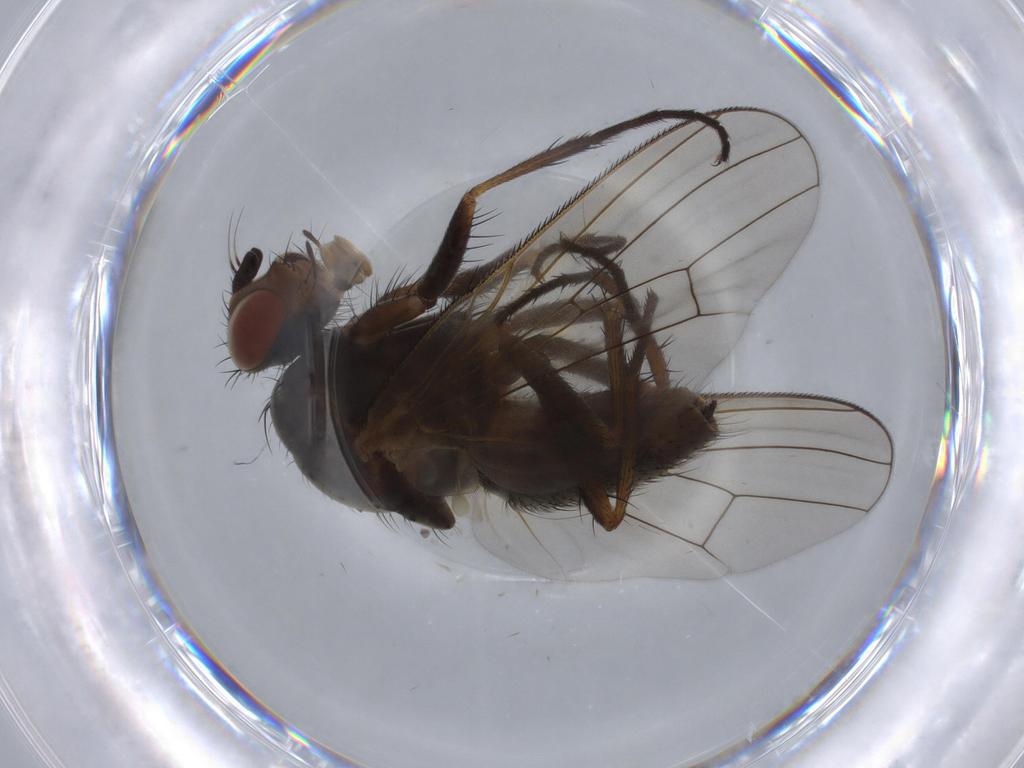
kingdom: Animalia
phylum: Arthropoda
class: Insecta
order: Diptera
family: Anthomyiidae
